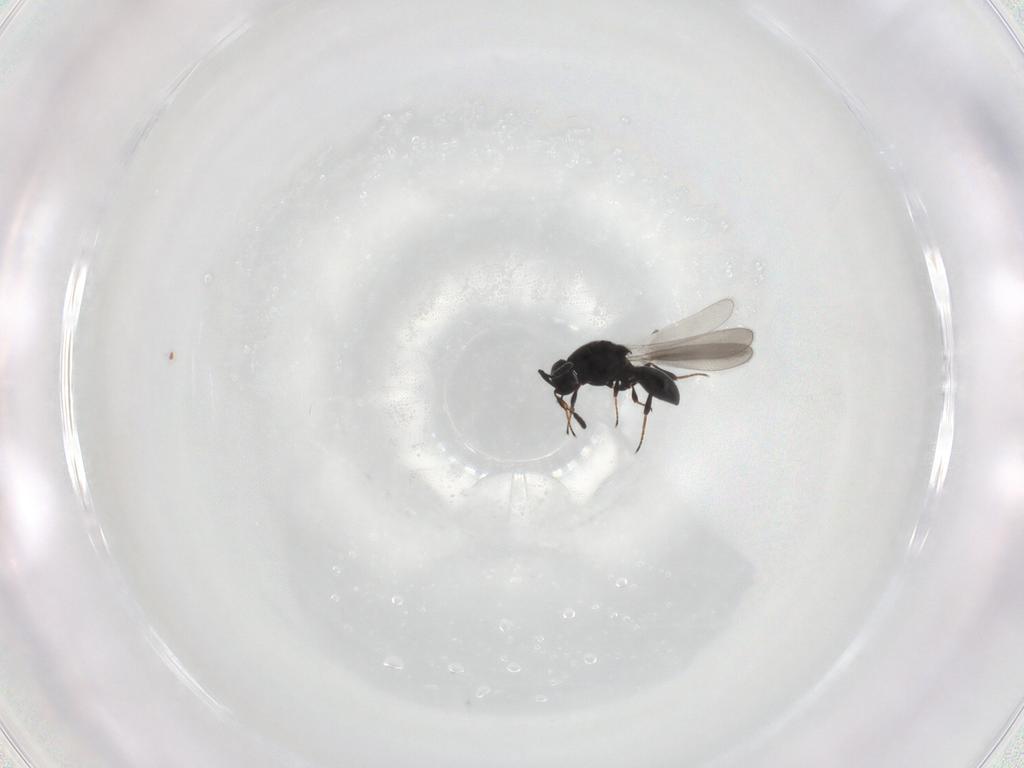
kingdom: Animalia
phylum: Arthropoda
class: Insecta
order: Hymenoptera
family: Platygastridae
